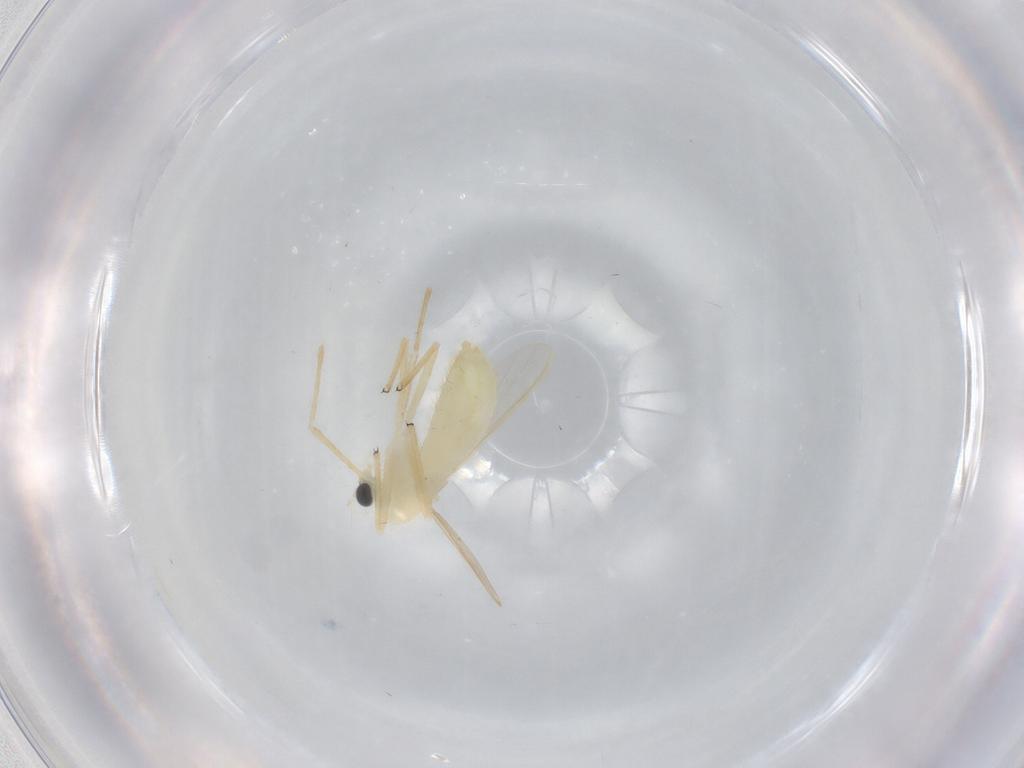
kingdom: Animalia
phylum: Arthropoda
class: Insecta
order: Diptera
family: Chironomidae
